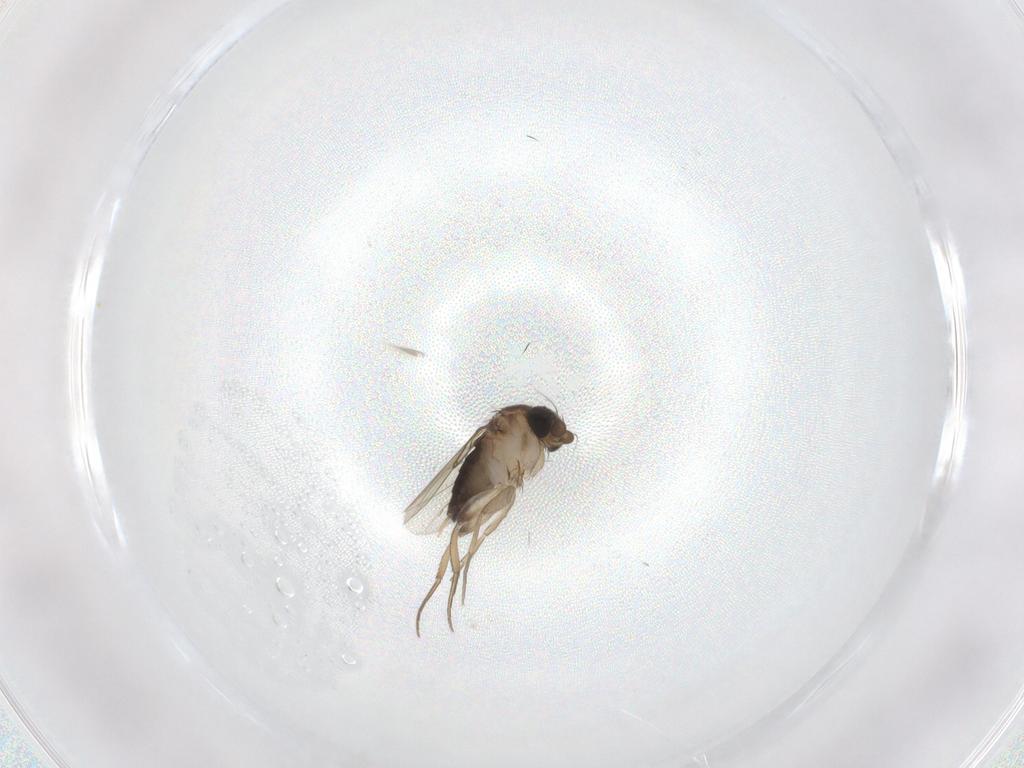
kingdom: Animalia
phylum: Arthropoda
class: Insecta
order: Diptera
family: Phoridae
